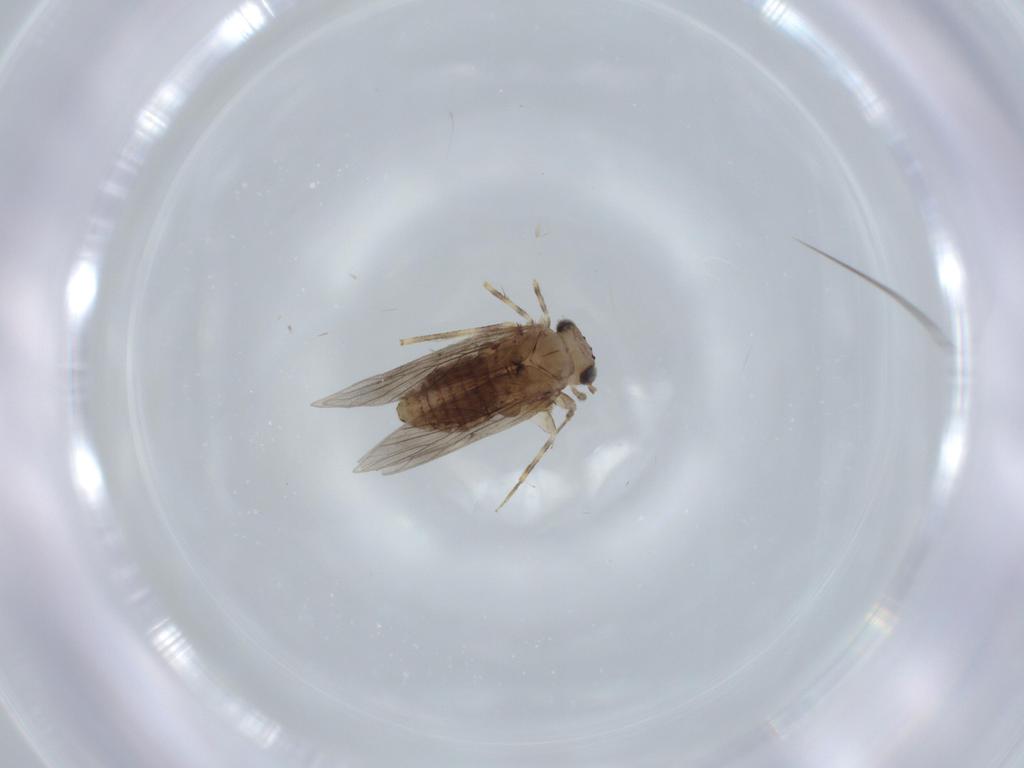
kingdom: Animalia
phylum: Arthropoda
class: Insecta
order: Psocodea
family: Lepidopsocidae
